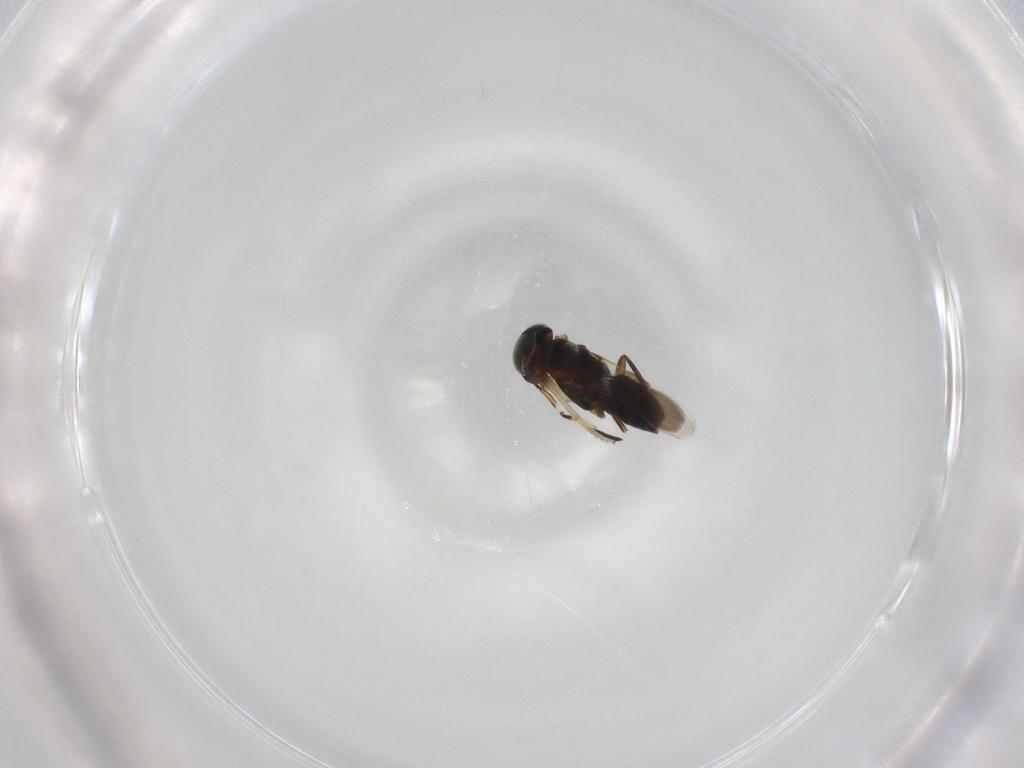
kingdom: Animalia
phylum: Arthropoda
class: Insecta
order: Hymenoptera
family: Encyrtidae
